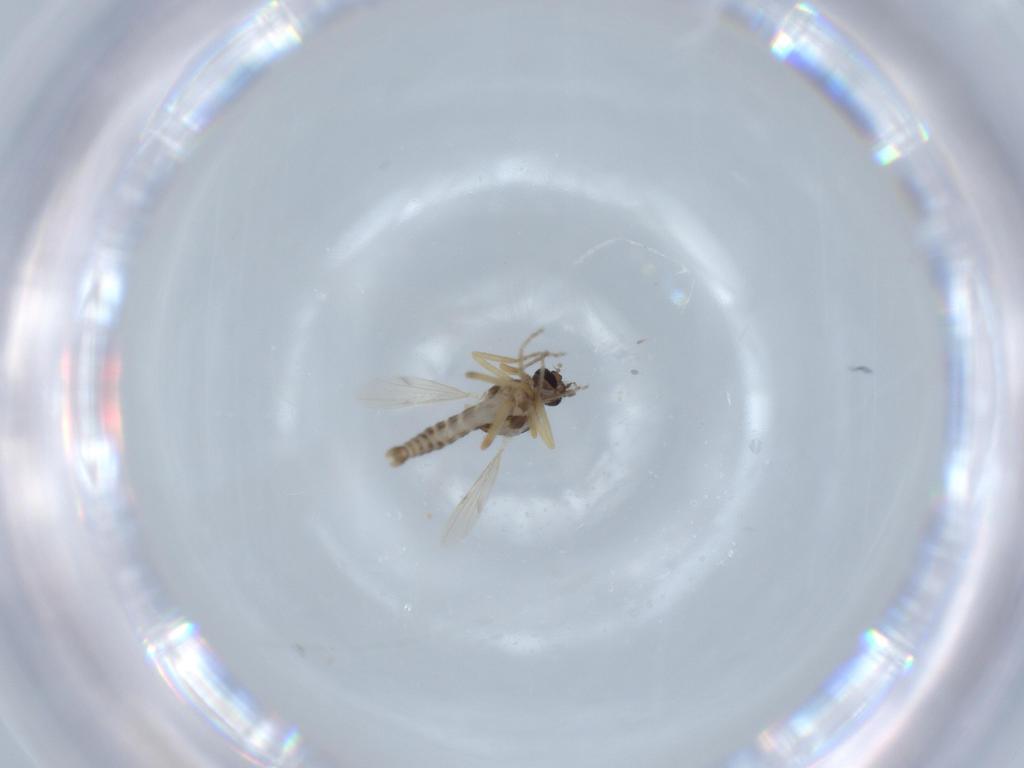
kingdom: Animalia
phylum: Arthropoda
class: Insecta
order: Diptera
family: Ceratopogonidae
